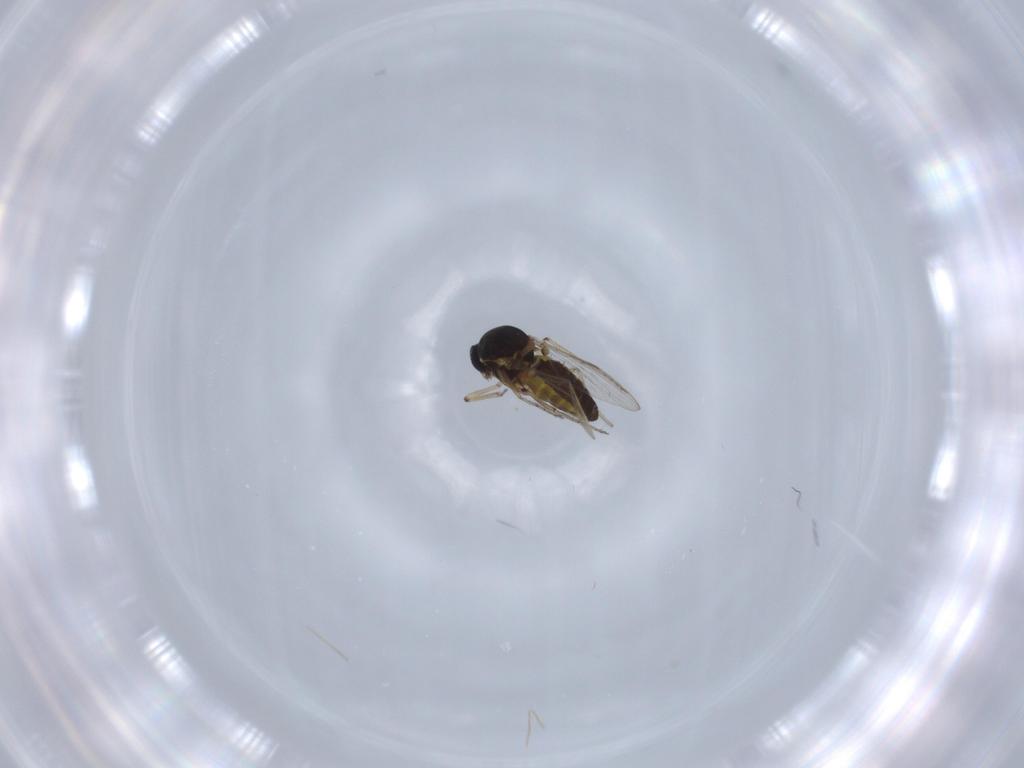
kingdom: Animalia
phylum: Arthropoda
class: Insecta
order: Diptera
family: Ceratopogonidae
